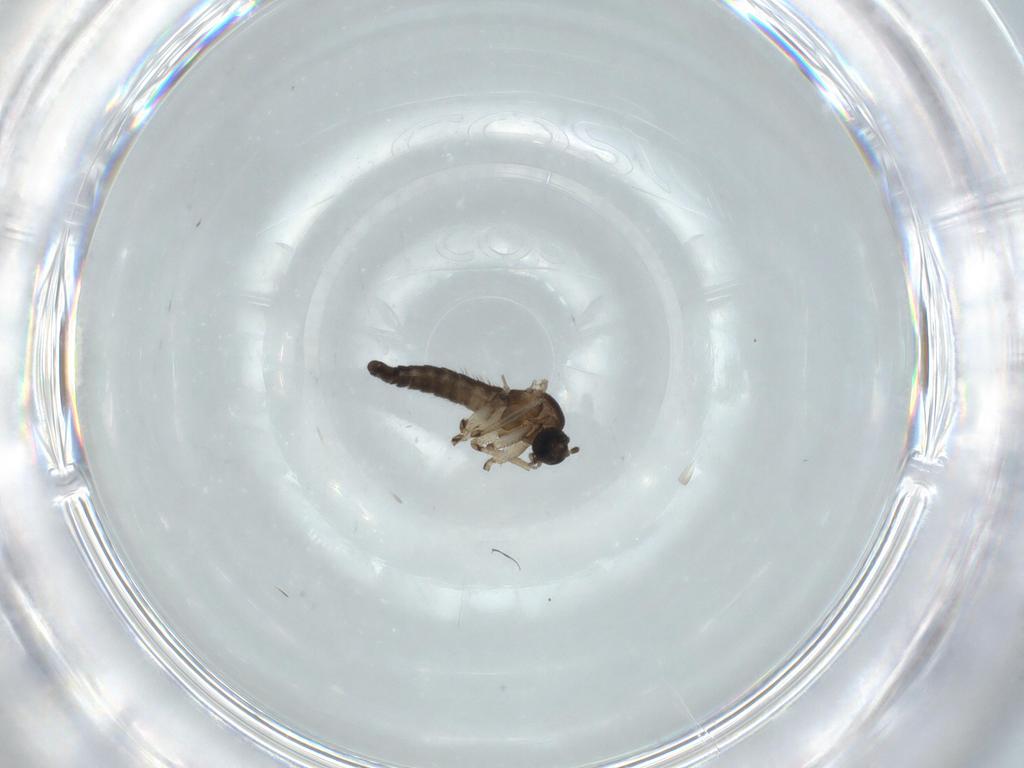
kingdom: Animalia
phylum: Arthropoda
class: Insecta
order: Diptera
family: Sciaridae
